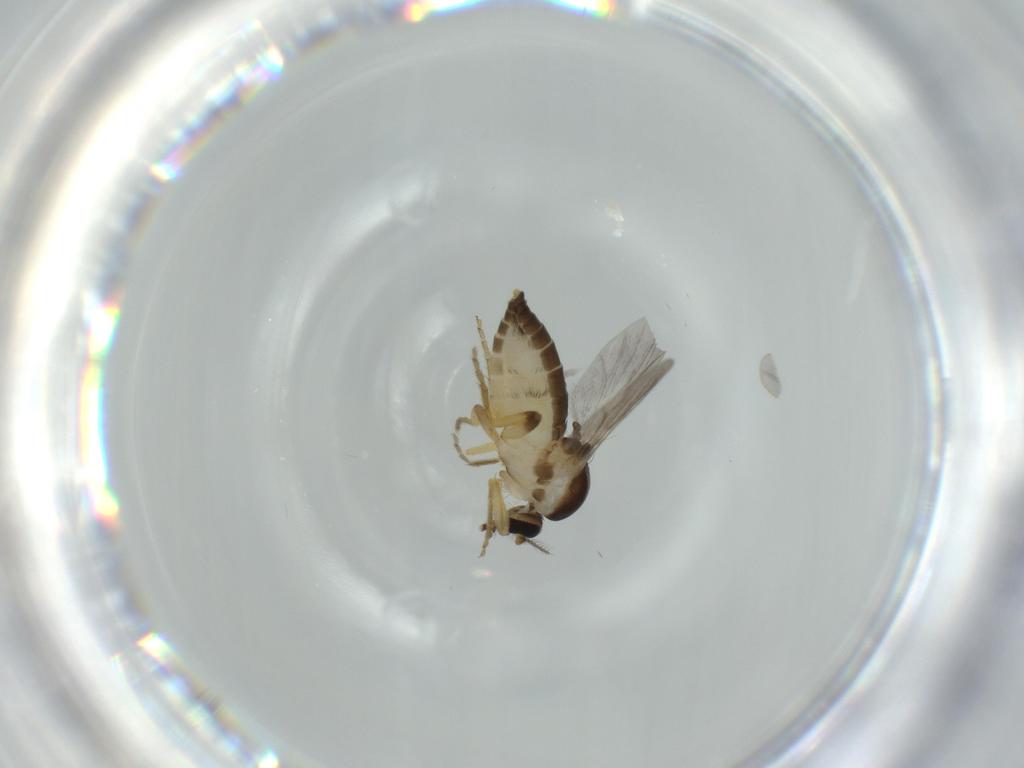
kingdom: Animalia
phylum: Arthropoda
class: Insecta
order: Diptera
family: Ceratopogonidae
